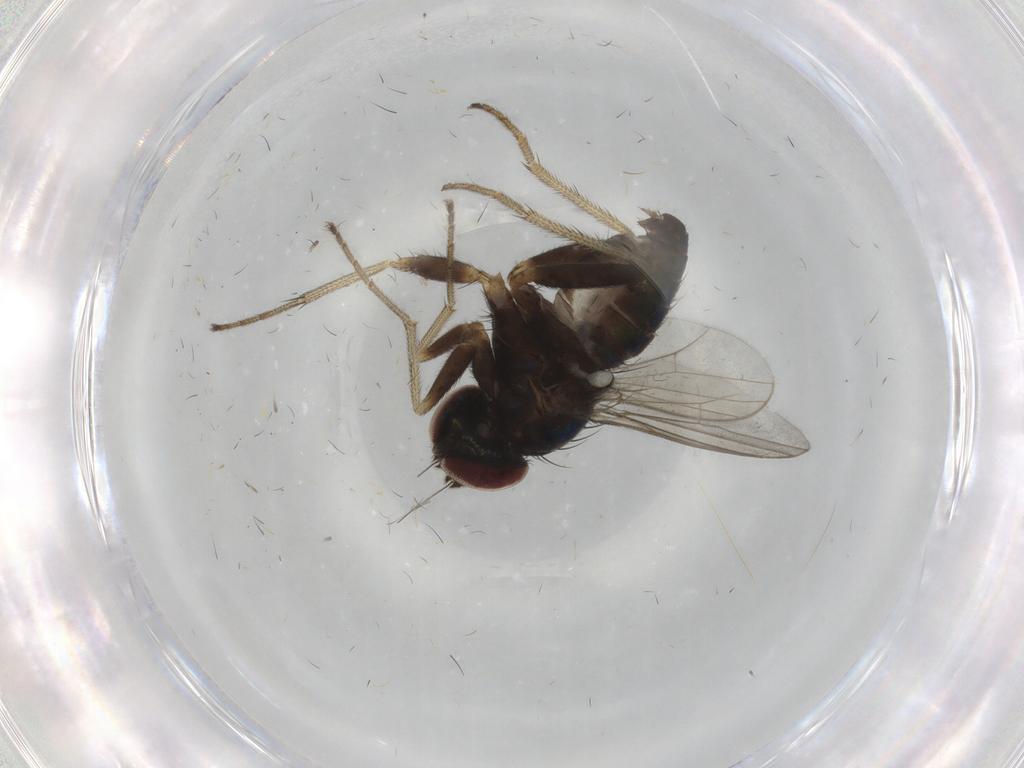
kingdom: Animalia
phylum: Arthropoda
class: Insecta
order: Diptera
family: Dolichopodidae
